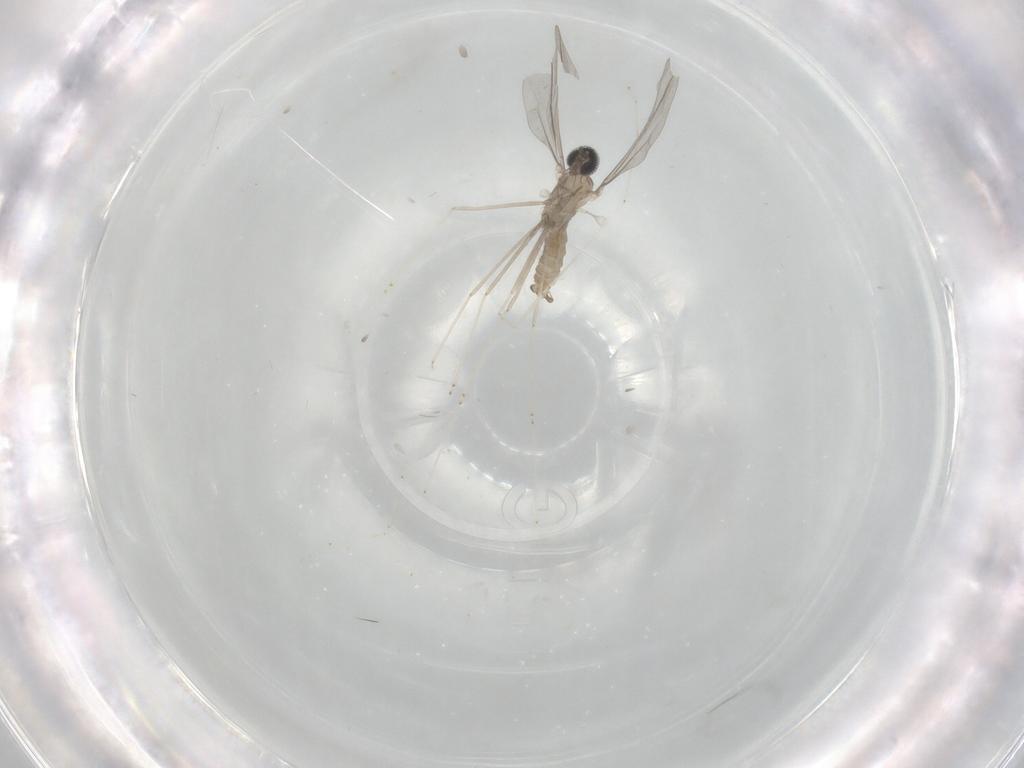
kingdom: Animalia
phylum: Arthropoda
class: Insecta
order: Diptera
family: Cecidomyiidae
